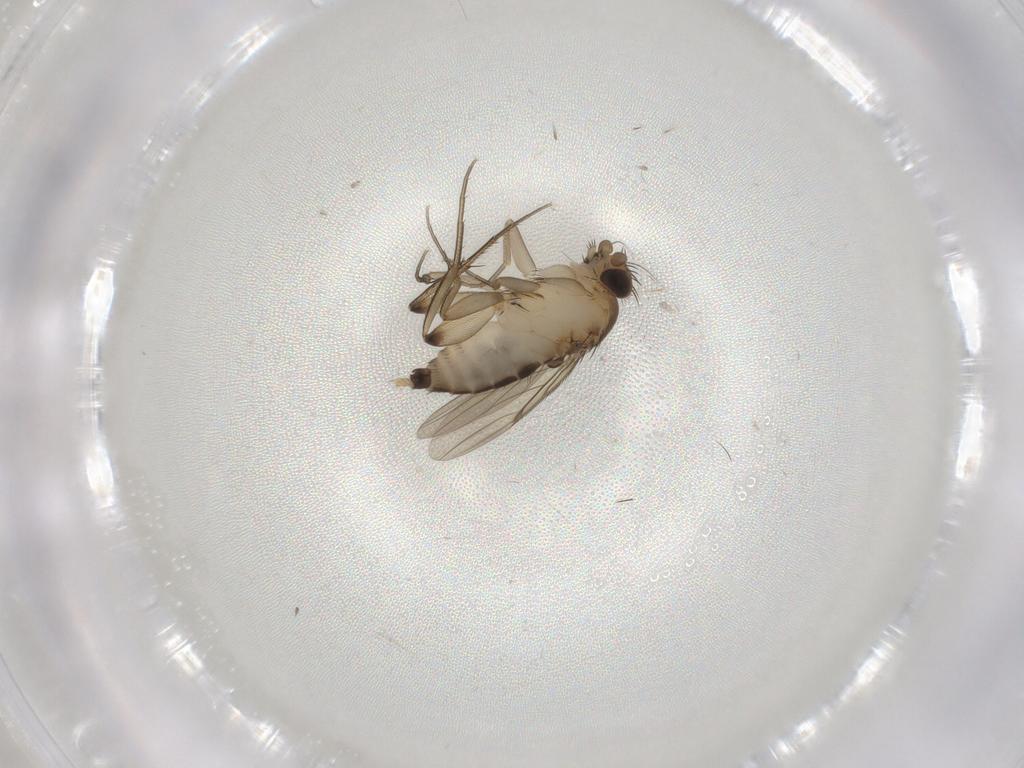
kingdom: Animalia
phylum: Arthropoda
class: Insecta
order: Diptera
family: Phoridae
